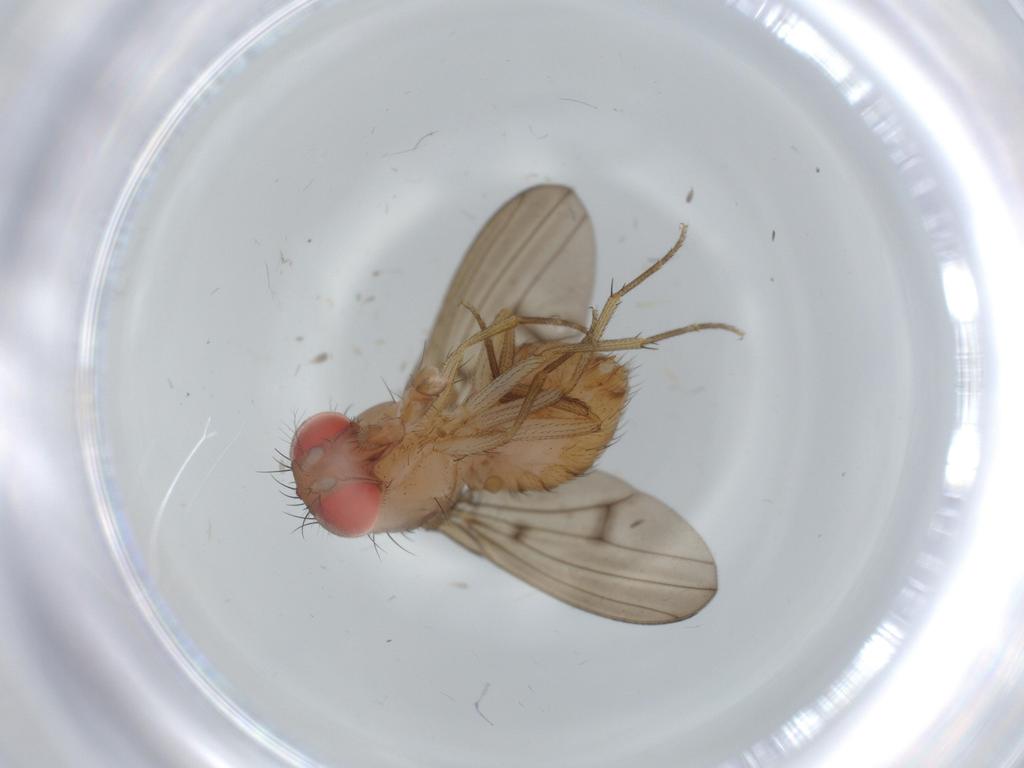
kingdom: Animalia
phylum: Arthropoda
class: Insecta
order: Diptera
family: Drosophilidae
